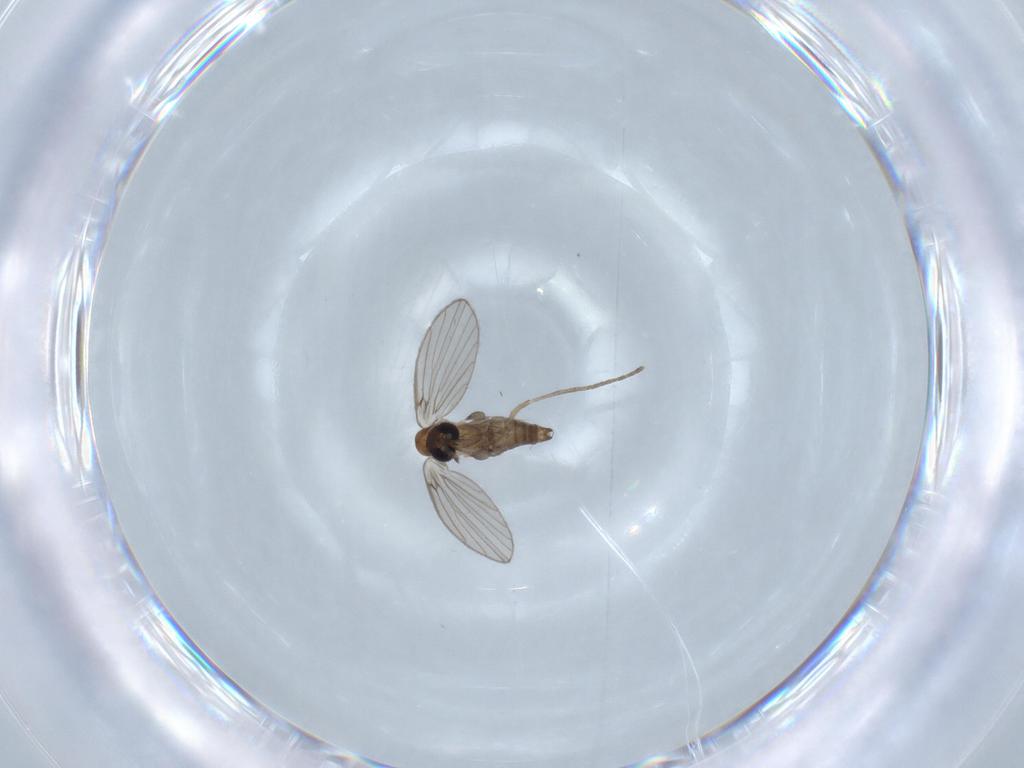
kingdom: Animalia
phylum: Arthropoda
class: Insecta
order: Diptera
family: Psychodidae
